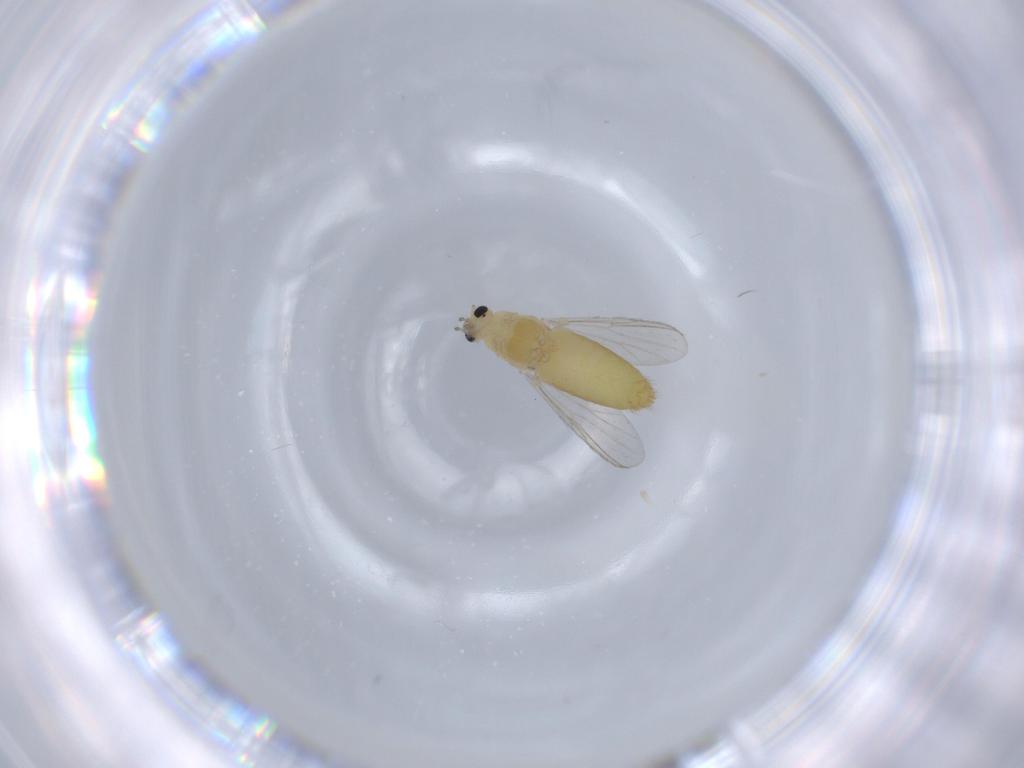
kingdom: Animalia
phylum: Arthropoda
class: Insecta
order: Diptera
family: Chironomidae
